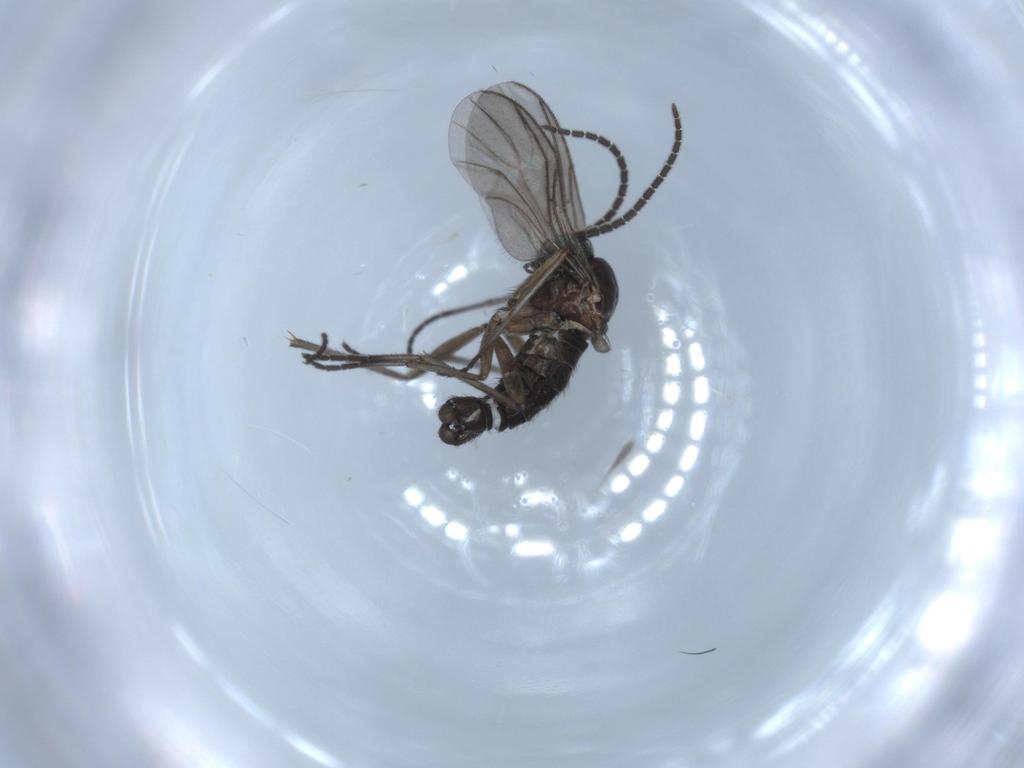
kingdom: Animalia
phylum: Arthropoda
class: Insecta
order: Diptera
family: Sciaridae
